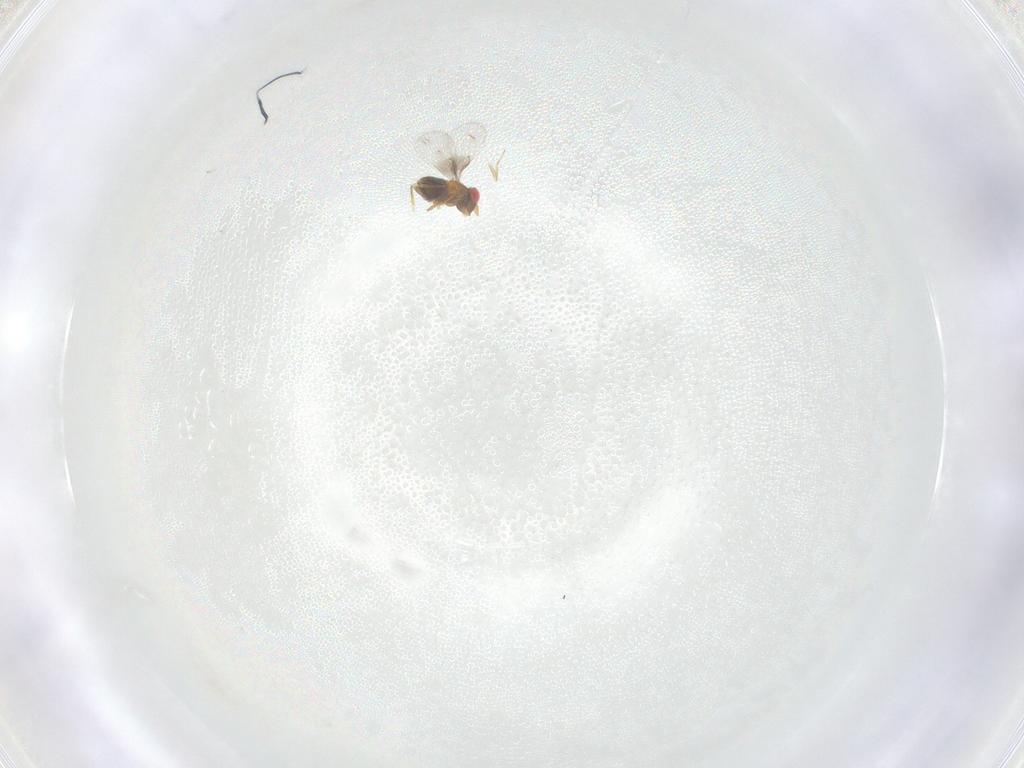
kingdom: Animalia
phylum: Arthropoda
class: Insecta
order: Hymenoptera
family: Trichogrammatidae
